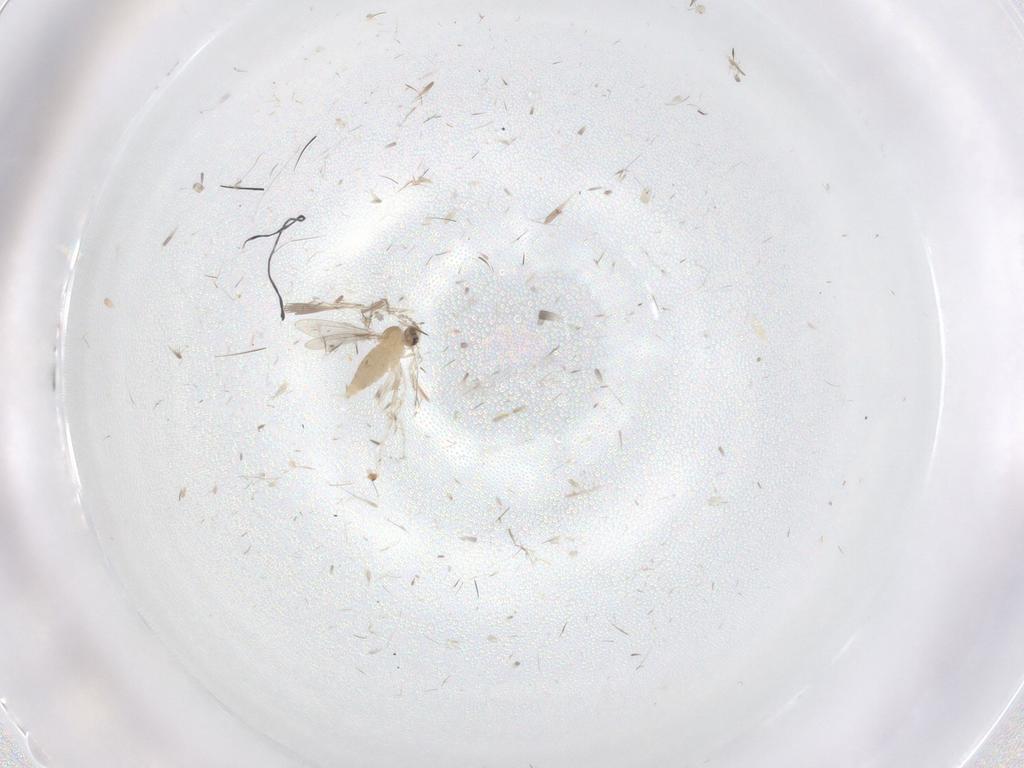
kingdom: Animalia
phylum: Arthropoda
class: Insecta
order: Diptera
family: Cecidomyiidae
